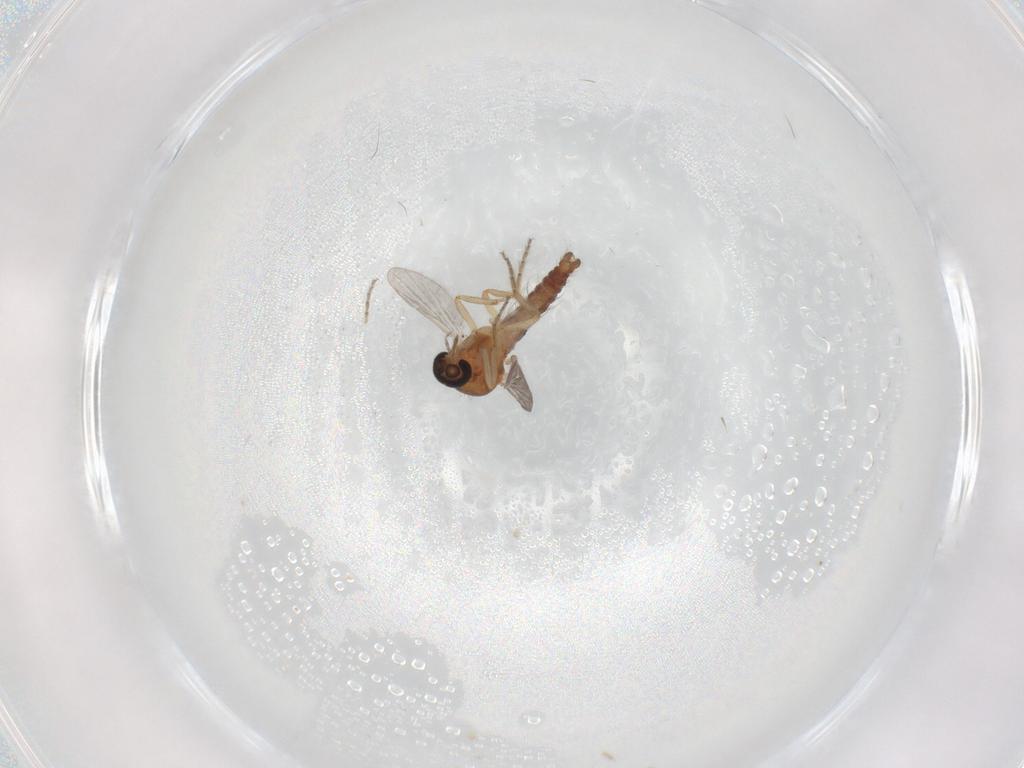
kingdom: Animalia
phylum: Arthropoda
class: Insecta
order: Diptera
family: Ceratopogonidae
